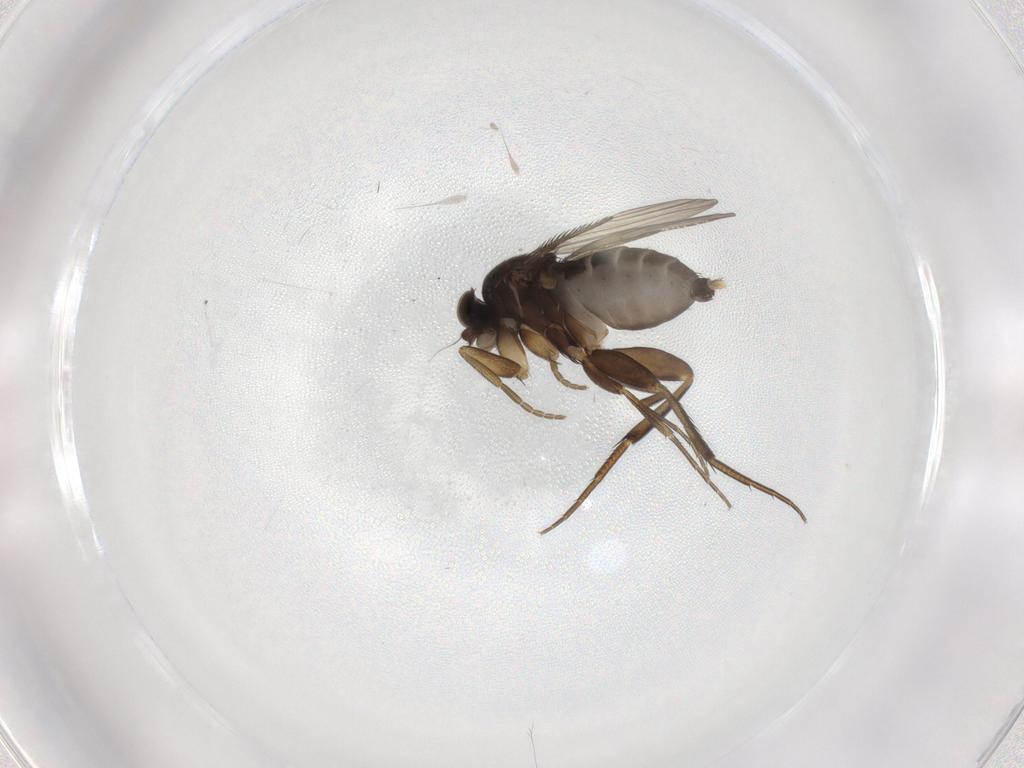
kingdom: Animalia
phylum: Arthropoda
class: Insecta
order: Diptera
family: Phoridae
